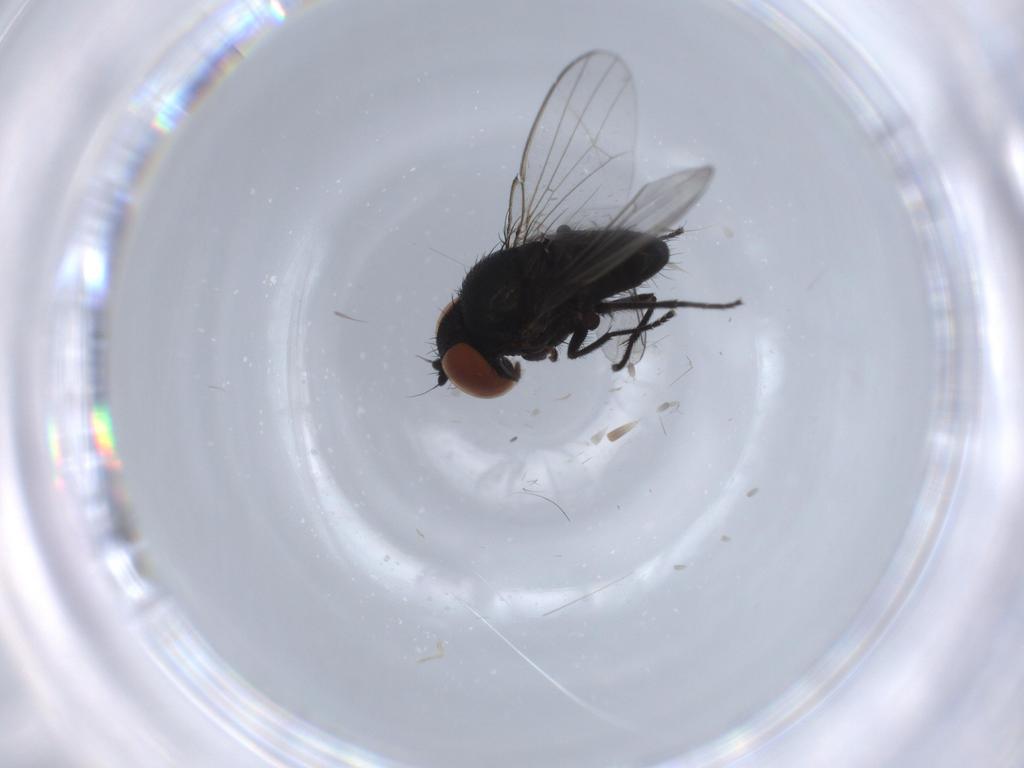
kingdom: Animalia
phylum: Arthropoda
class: Insecta
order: Diptera
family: Milichiidae
